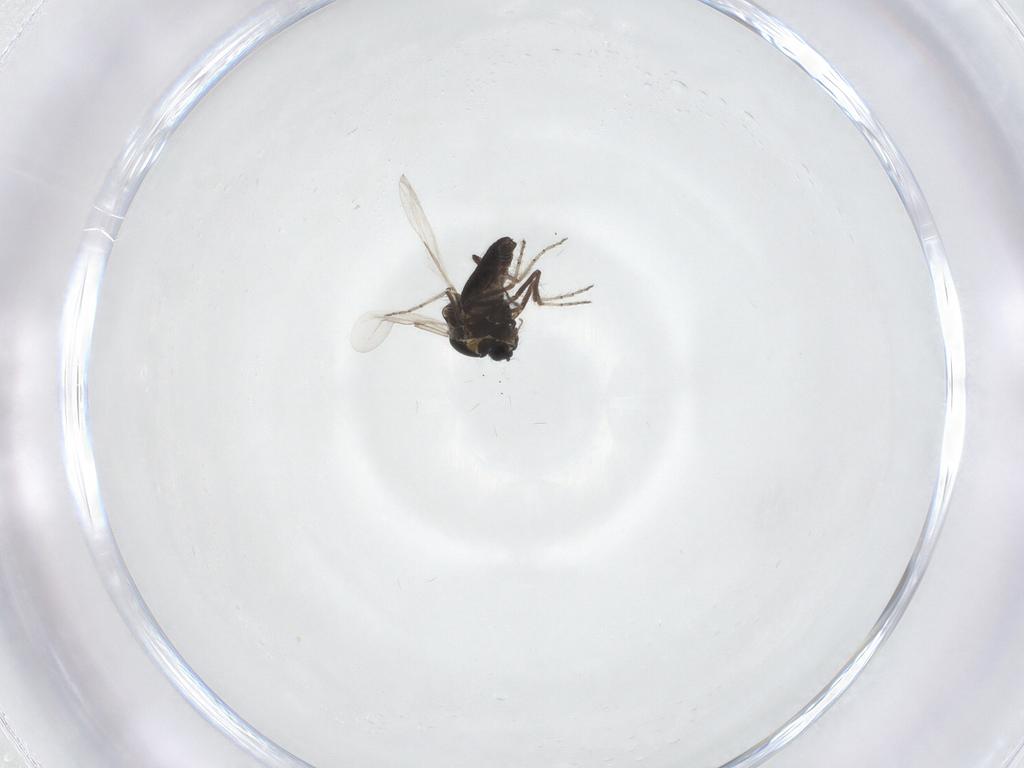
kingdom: Animalia
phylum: Arthropoda
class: Insecta
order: Diptera
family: Ceratopogonidae
